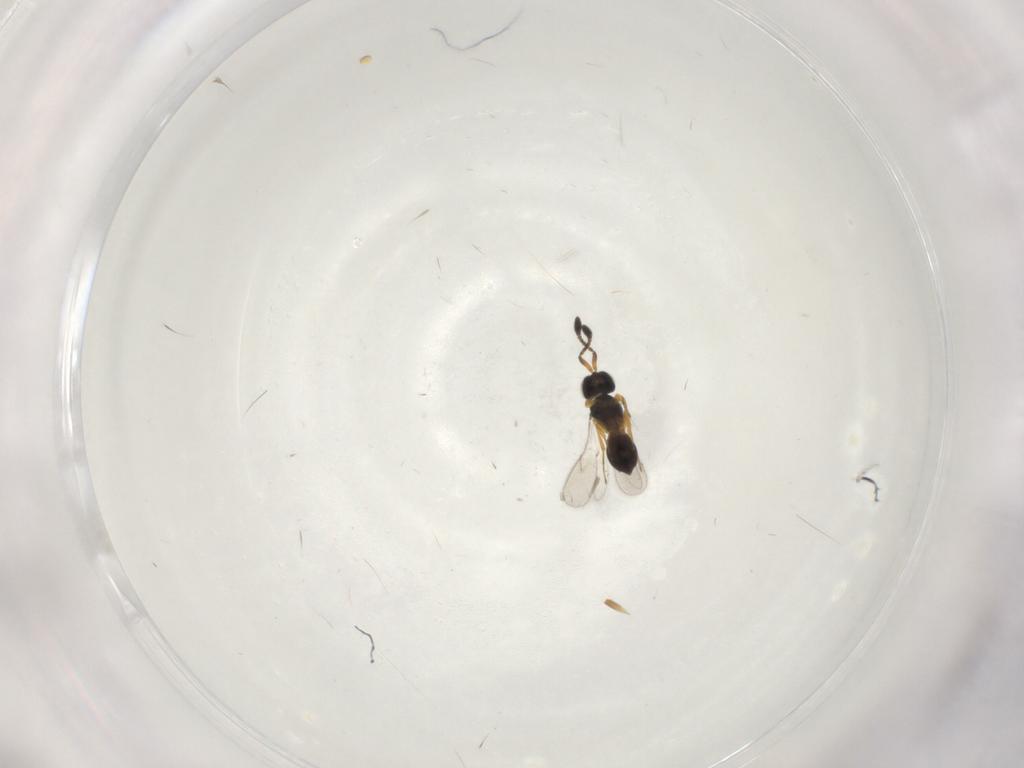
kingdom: Animalia
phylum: Arthropoda
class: Insecta
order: Hymenoptera
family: Scelionidae
